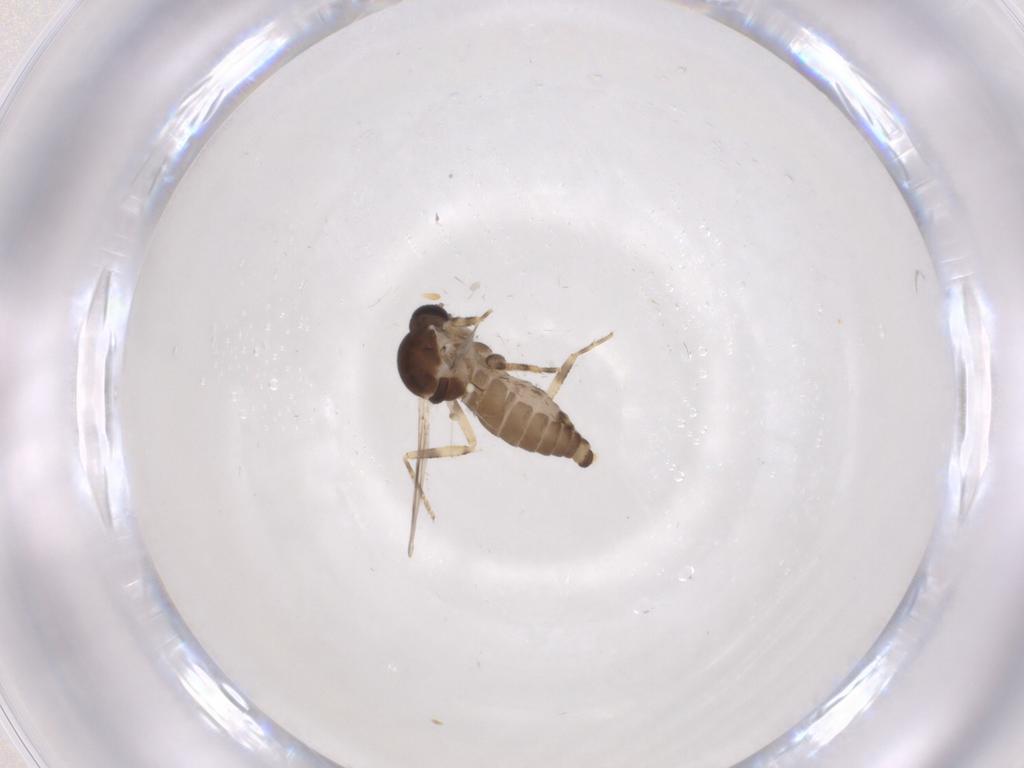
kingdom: Animalia
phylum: Arthropoda
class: Insecta
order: Diptera
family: Ceratopogonidae
